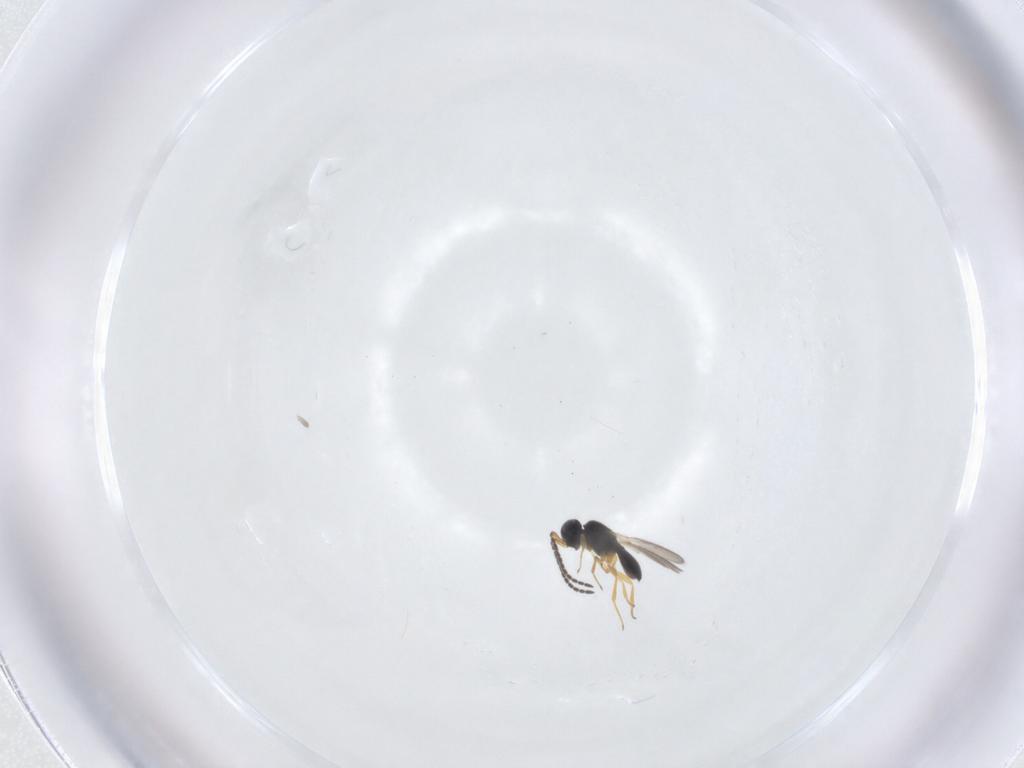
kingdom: Animalia
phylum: Arthropoda
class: Insecta
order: Hymenoptera
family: Scelionidae
